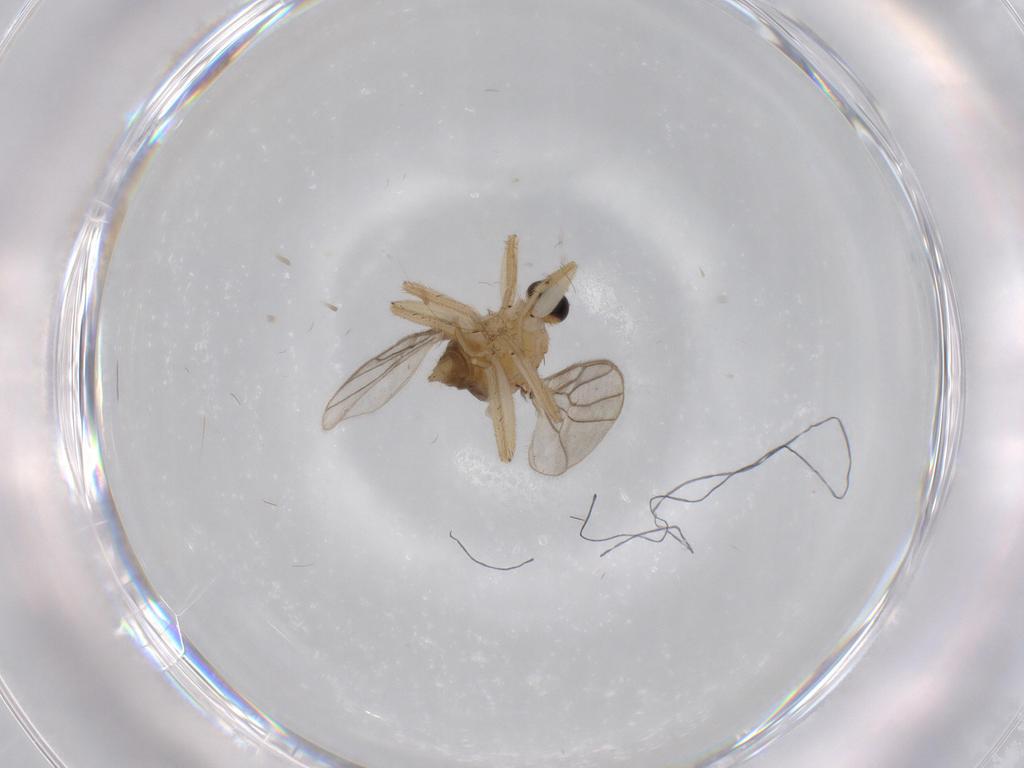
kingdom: Animalia
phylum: Arthropoda
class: Insecta
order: Diptera
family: Hybotidae
